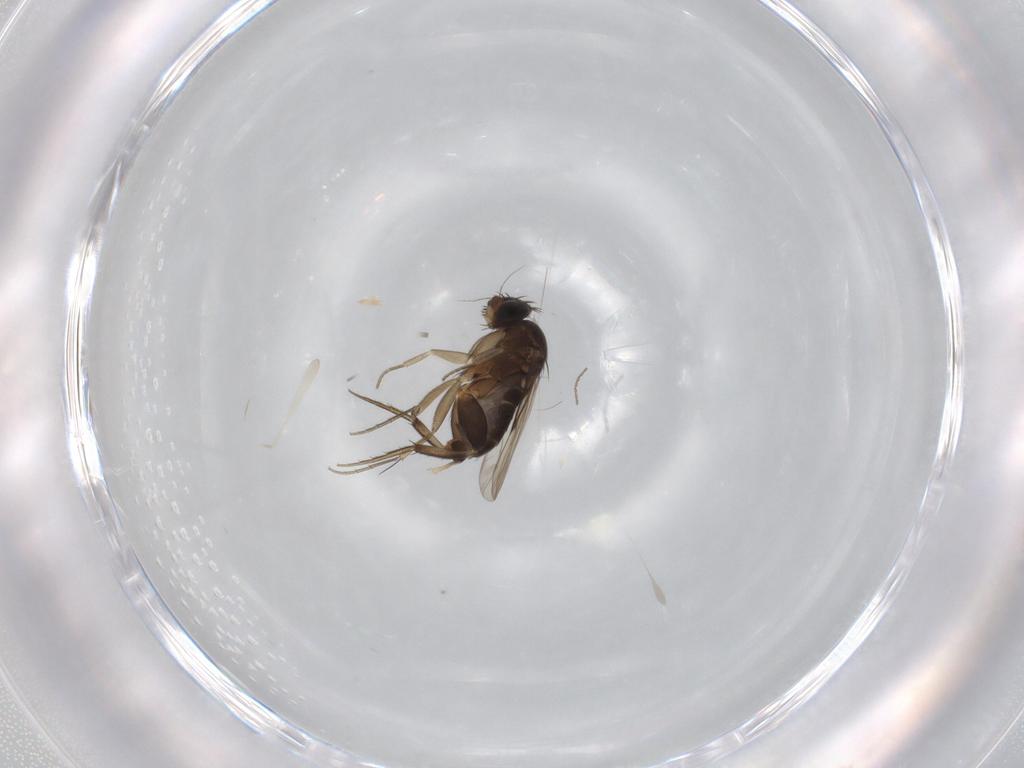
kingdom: Animalia
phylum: Arthropoda
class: Insecta
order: Diptera
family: Phoridae
